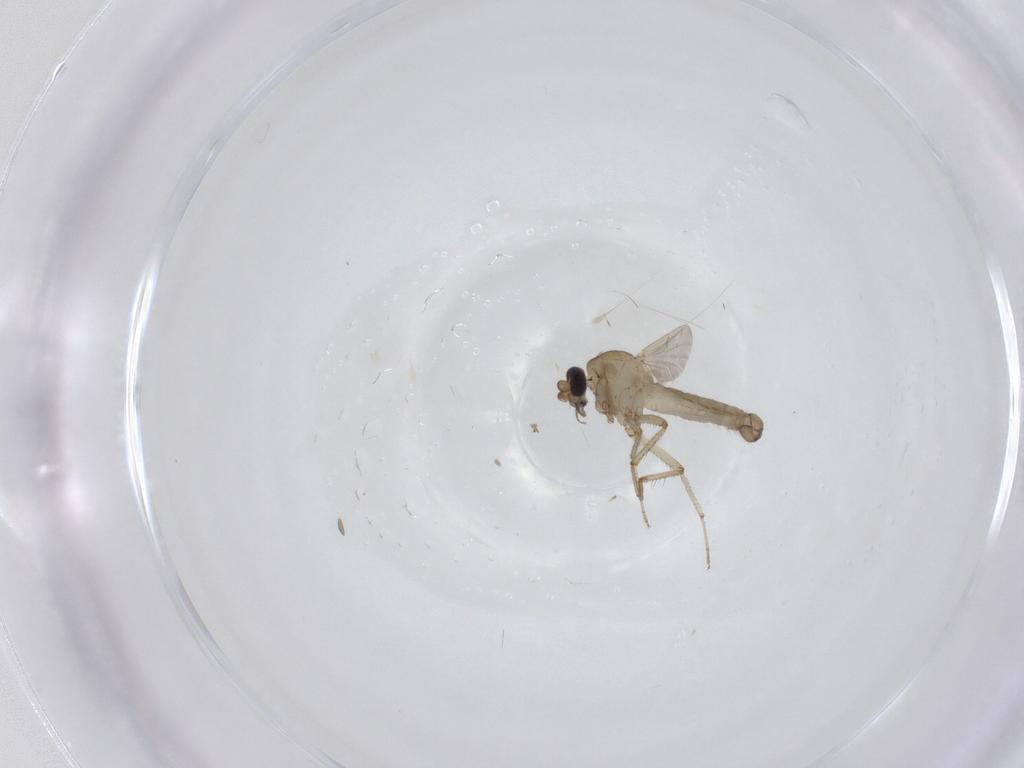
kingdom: Animalia
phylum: Arthropoda
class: Insecta
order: Diptera
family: Ceratopogonidae
